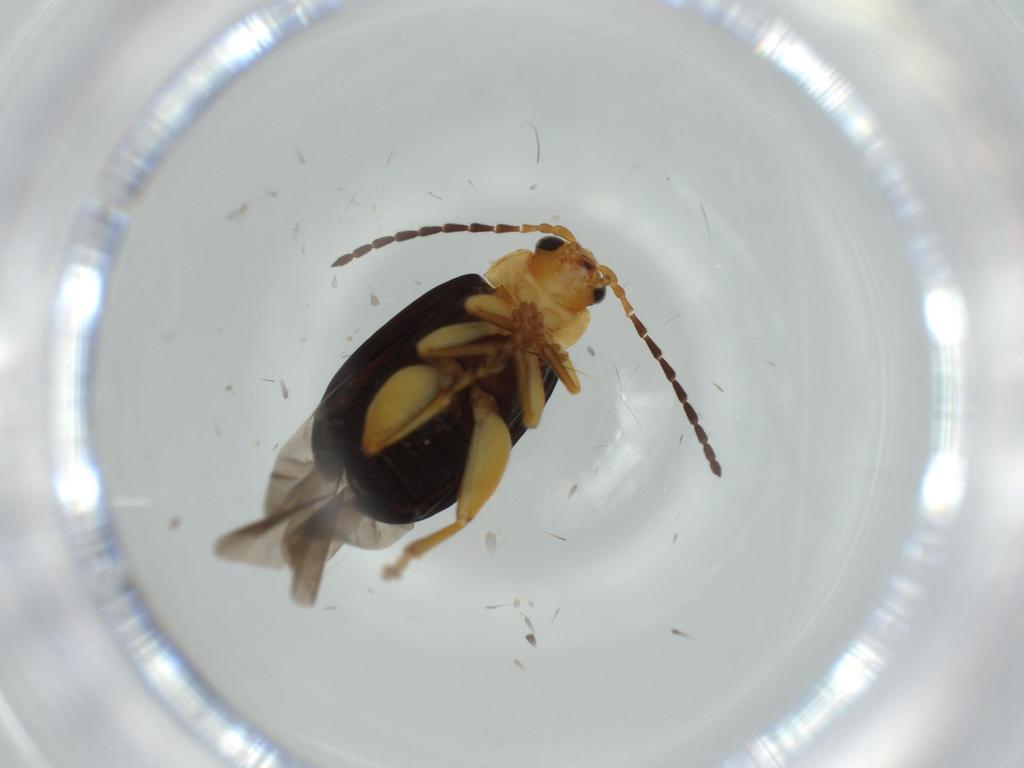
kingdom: Animalia
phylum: Arthropoda
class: Insecta
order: Coleoptera
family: Chrysomelidae
